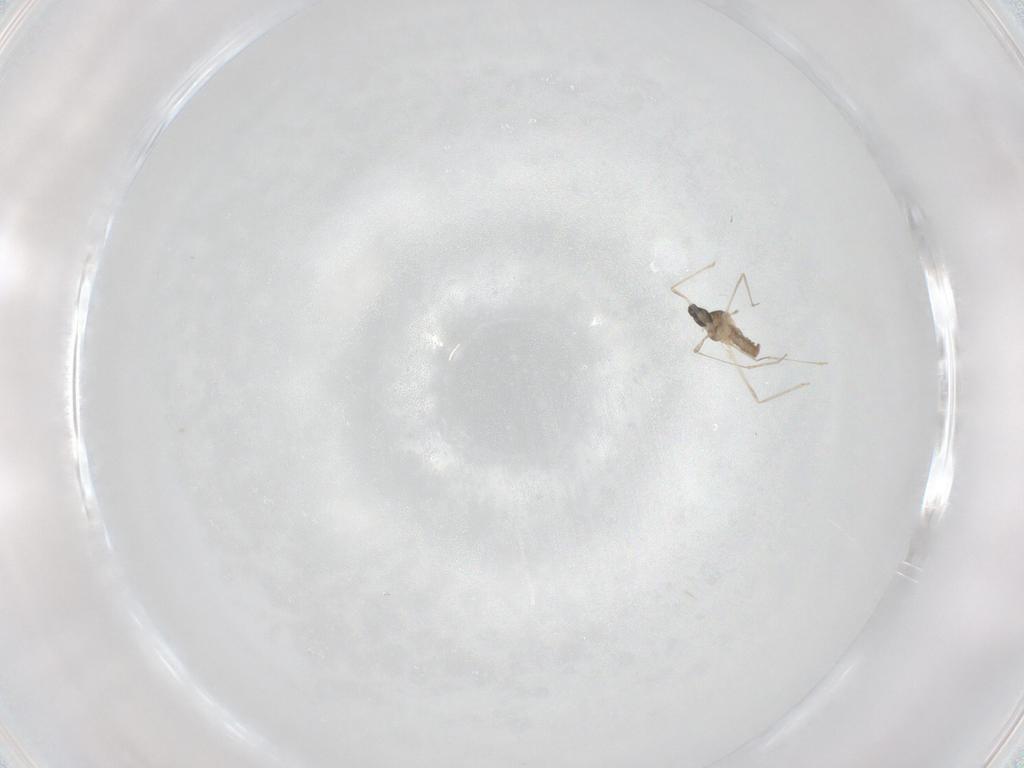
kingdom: Animalia
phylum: Arthropoda
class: Insecta
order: Diptera
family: Cecidomyiidae
